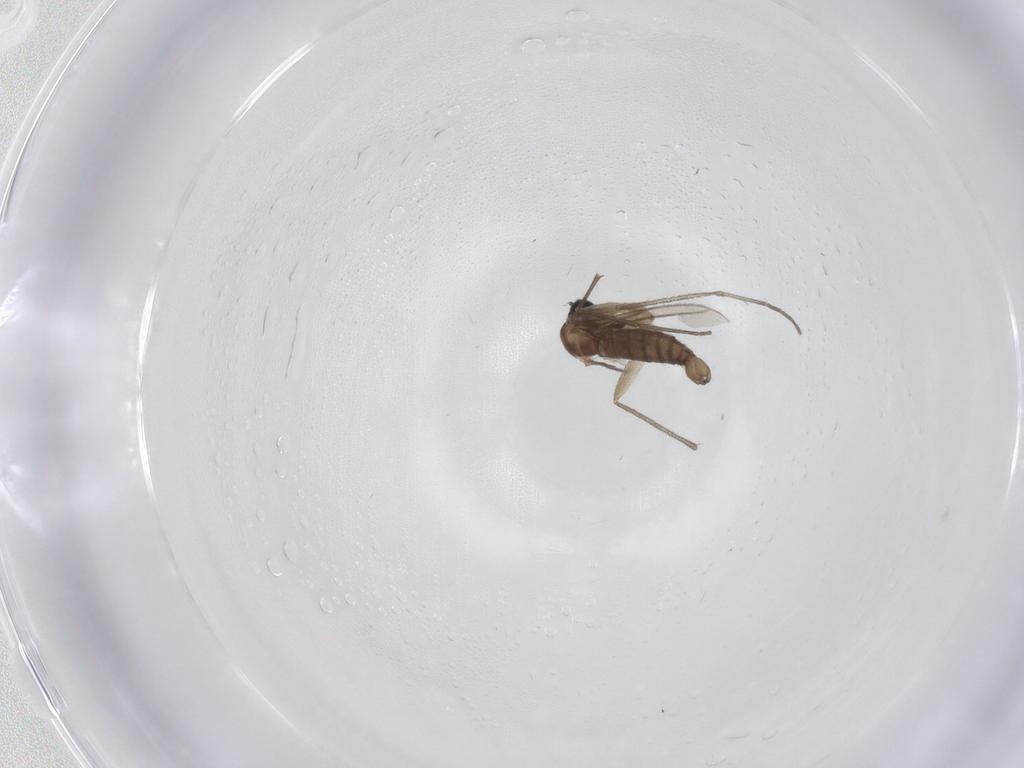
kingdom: Animalia
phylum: Arthropoda
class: Insecta
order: Diptera
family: Sciaridae
